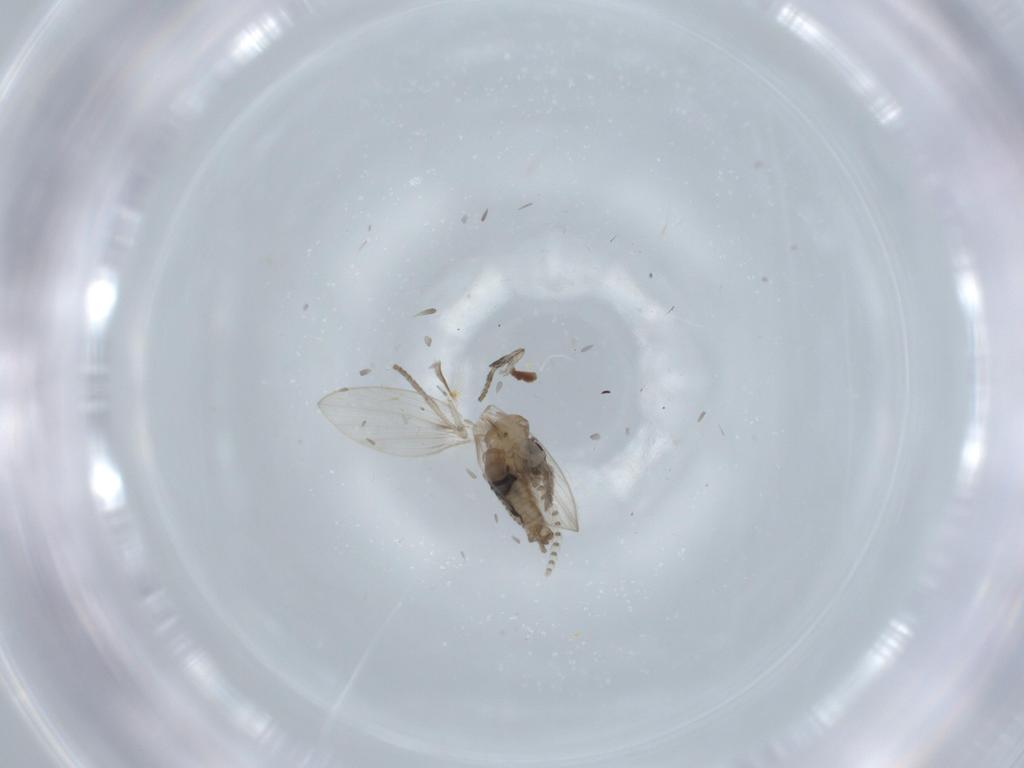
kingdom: Animalia
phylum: Arthropoda
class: Insecta
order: Diptera
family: Psychodidae
